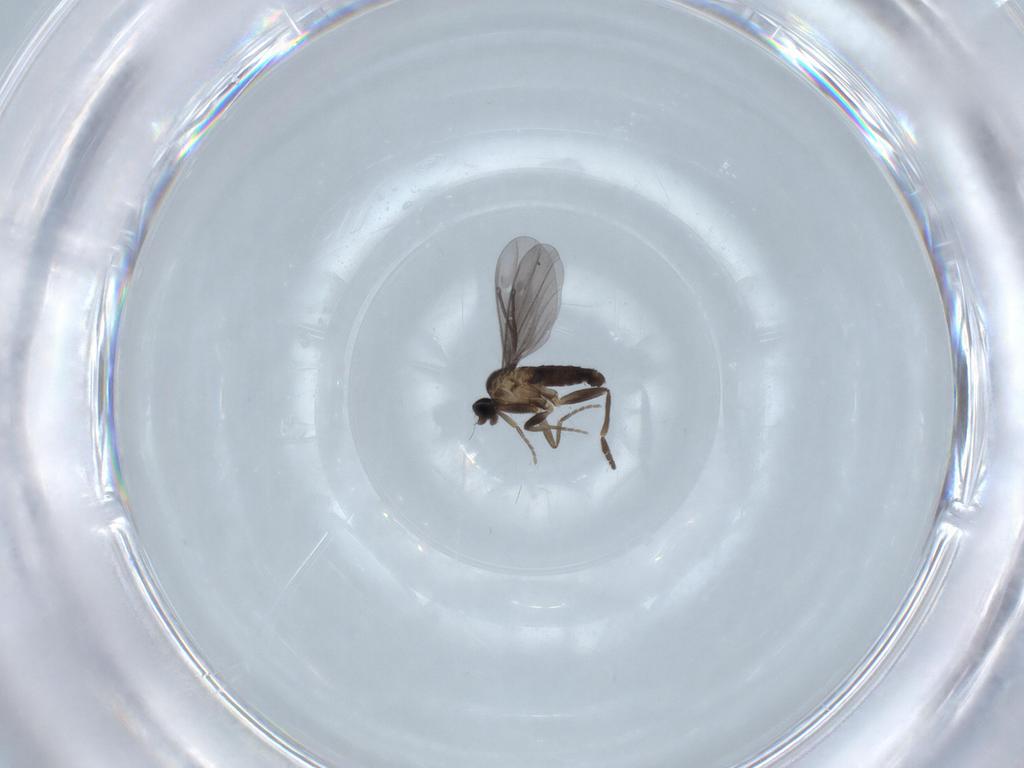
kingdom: Animalia
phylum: Arthropoda
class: Insecta
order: Diptera
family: Phoridae
